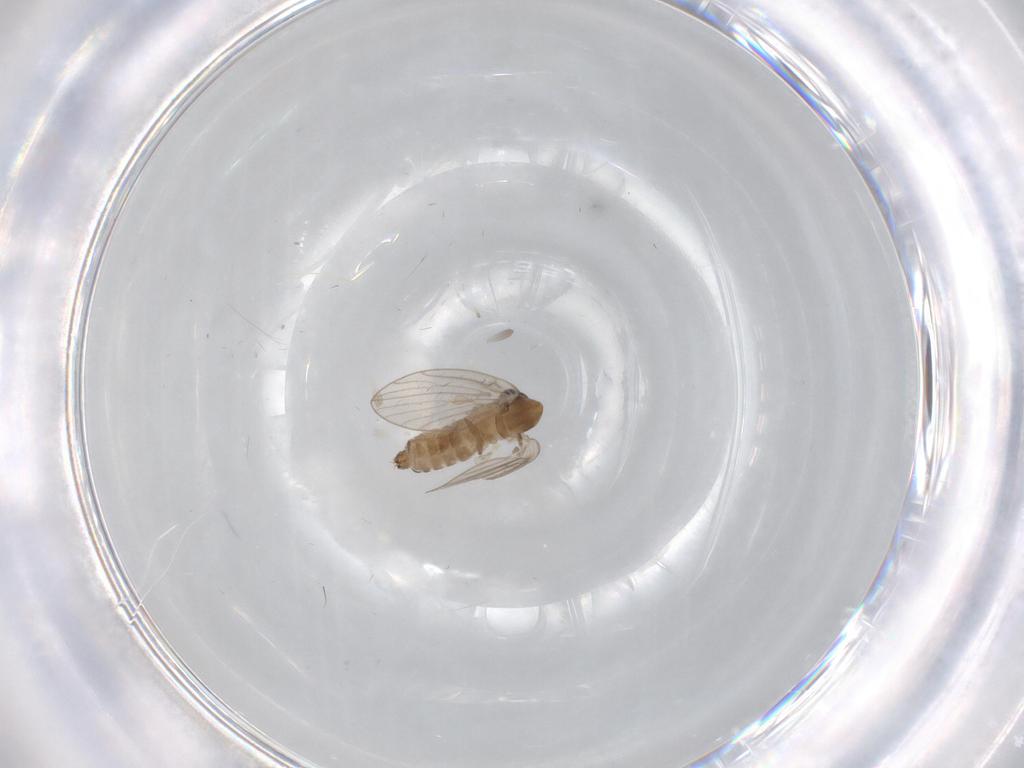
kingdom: Animalia
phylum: Arthropoda
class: Insecta
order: Diptera
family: Psychodidae
